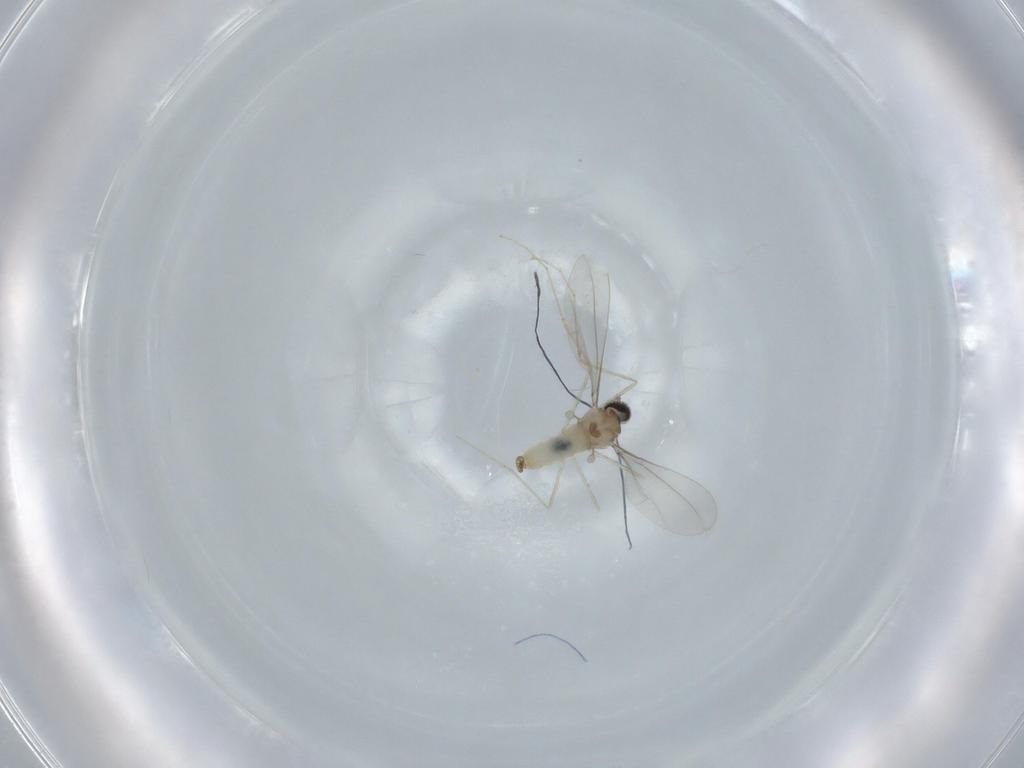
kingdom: Animalia
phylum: Arthropoda
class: Insecta
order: Diptera
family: Cecidomyiidae
